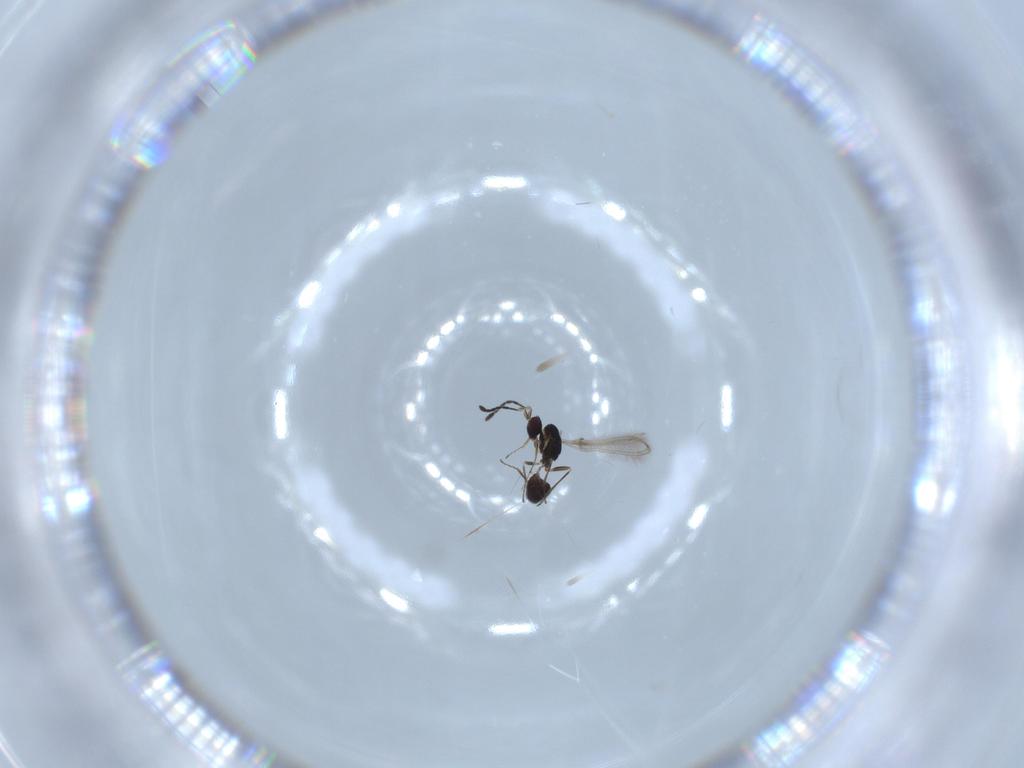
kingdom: Animalia
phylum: Arthropoda
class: Insecta
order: Hymenoptera
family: Mymaridae
